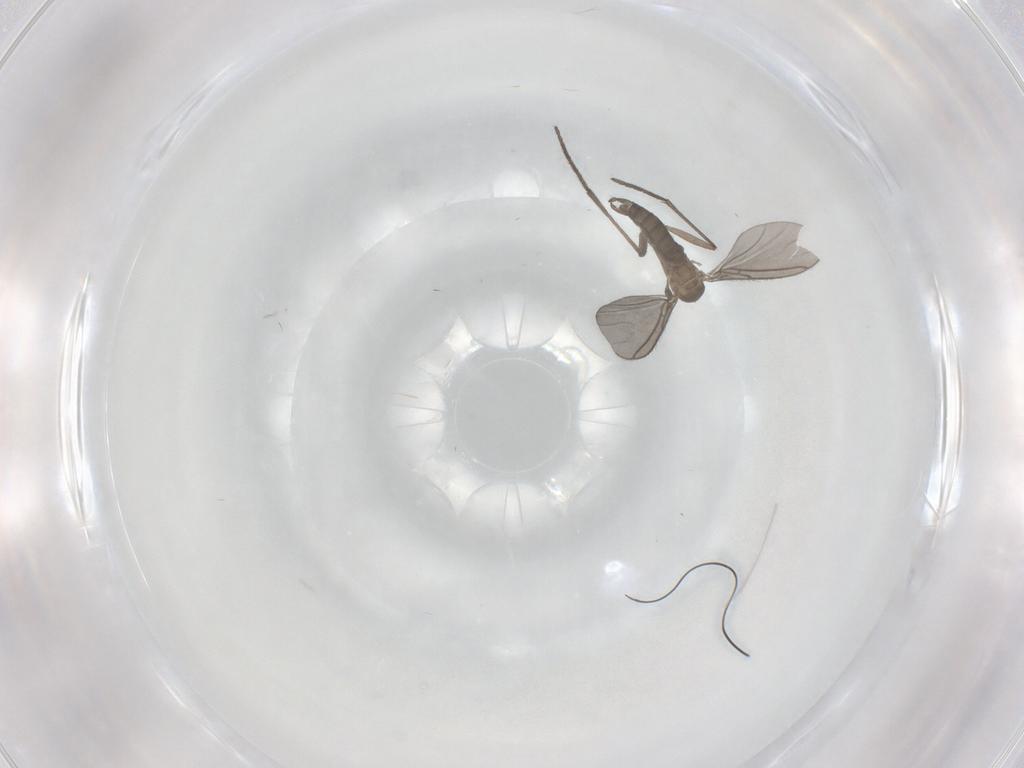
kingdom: Animalia
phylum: Arthropoda
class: Insecta
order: Diptera
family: Sciaridae
